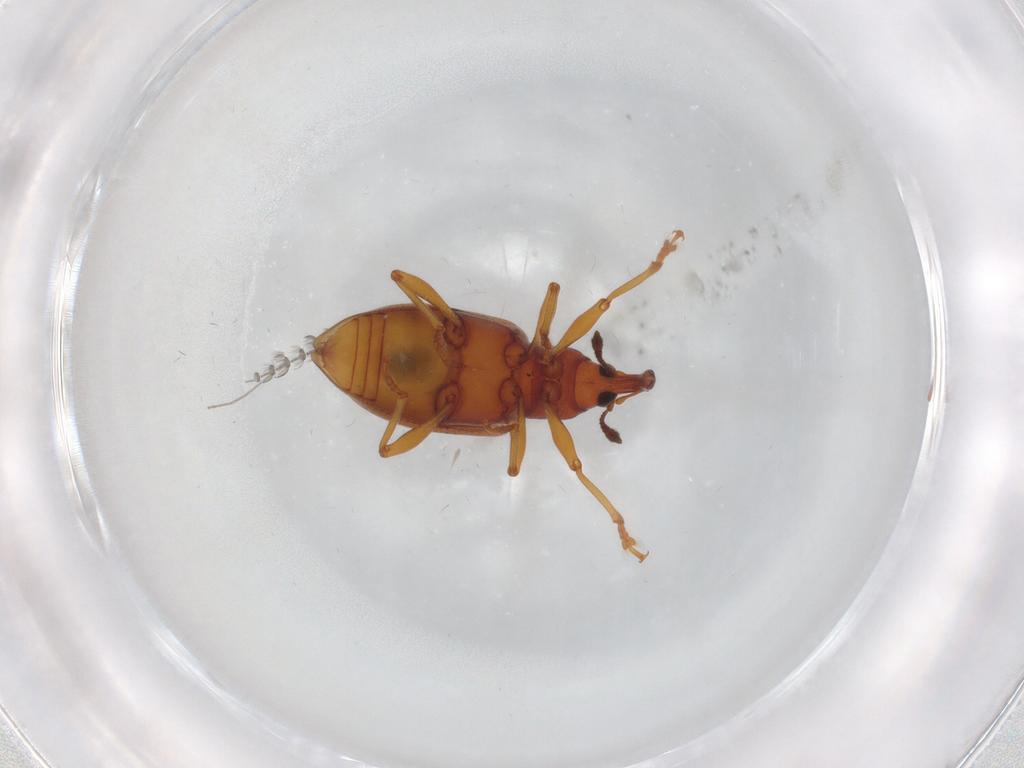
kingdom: Animalia
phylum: Arthropoda
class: Insecta
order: Coleoptera
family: Curculionidae
